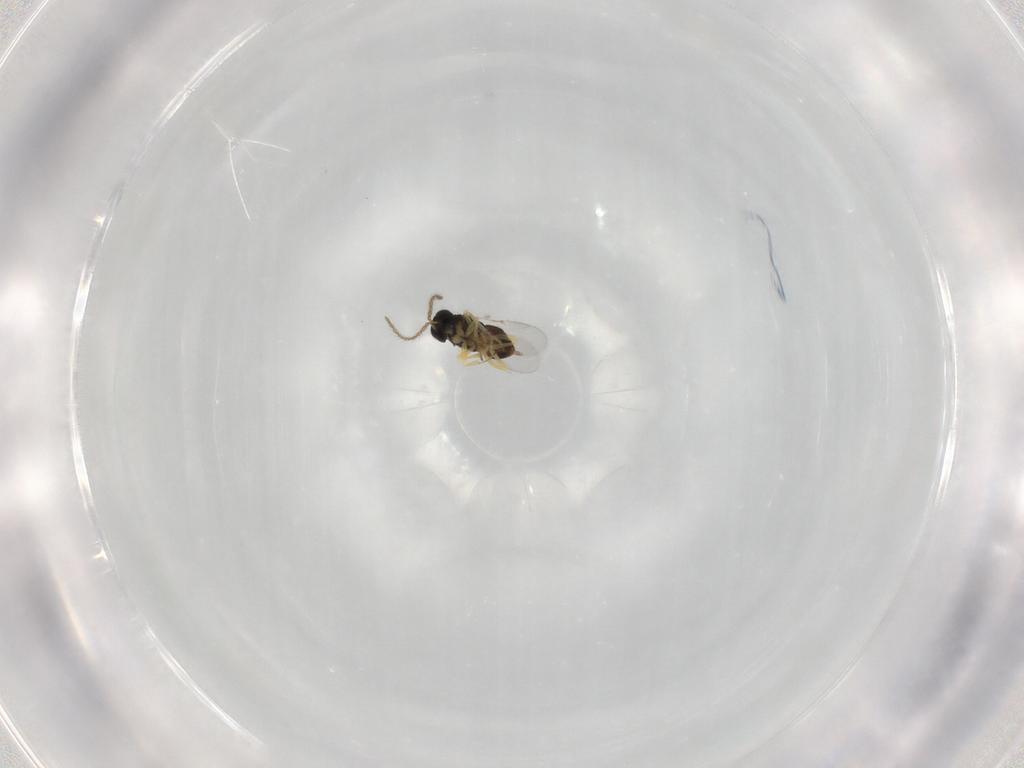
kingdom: Animalia
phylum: Arthropoda
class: Insecta
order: Hymenoptera
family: Encyrtidae
